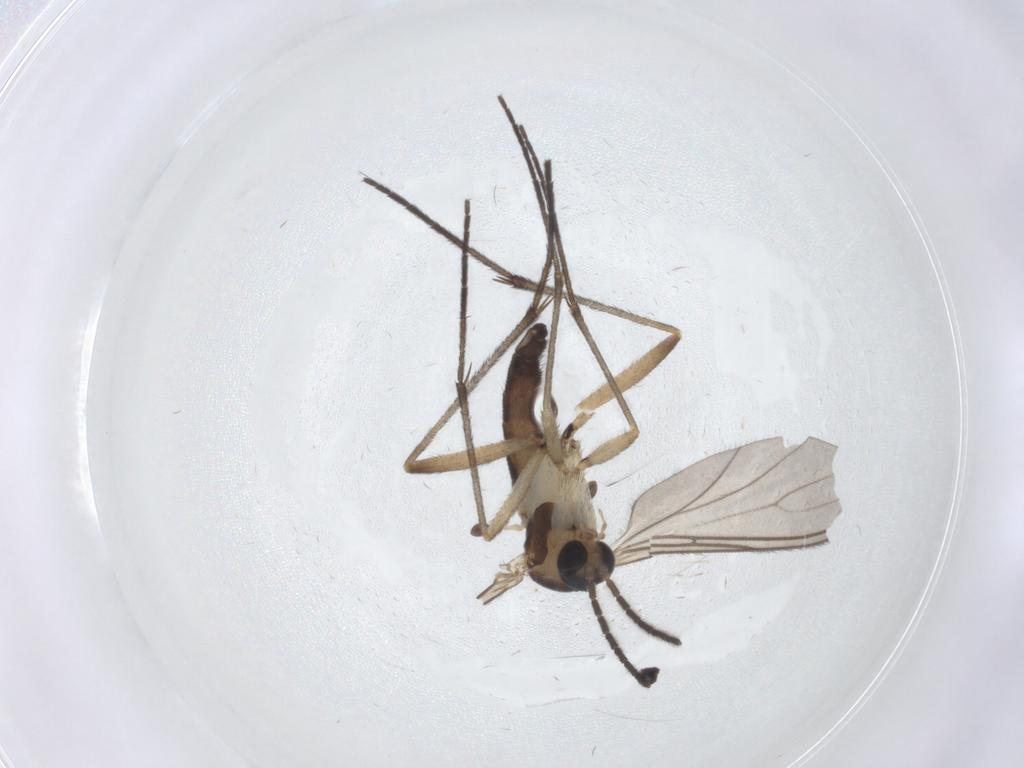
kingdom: Animalia
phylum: Arthropoda
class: Insecta
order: Diptera
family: Sciaridae
